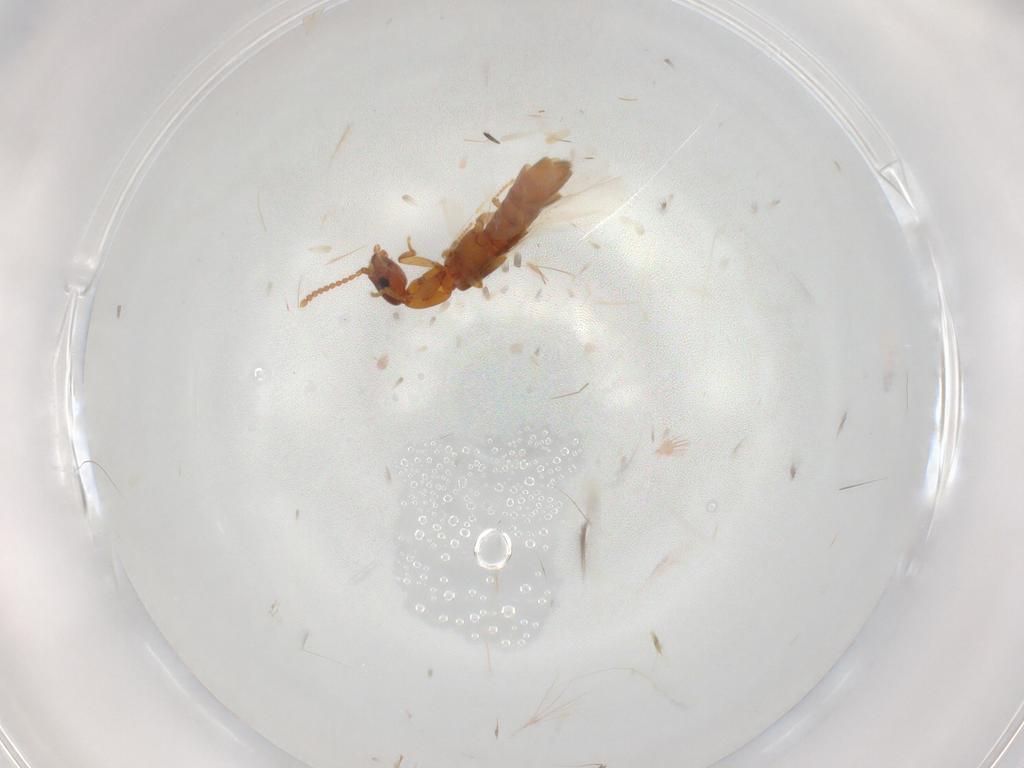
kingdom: Animalia
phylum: Arthropoda
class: Insecta
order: Coleoptera
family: Staphylinidae
